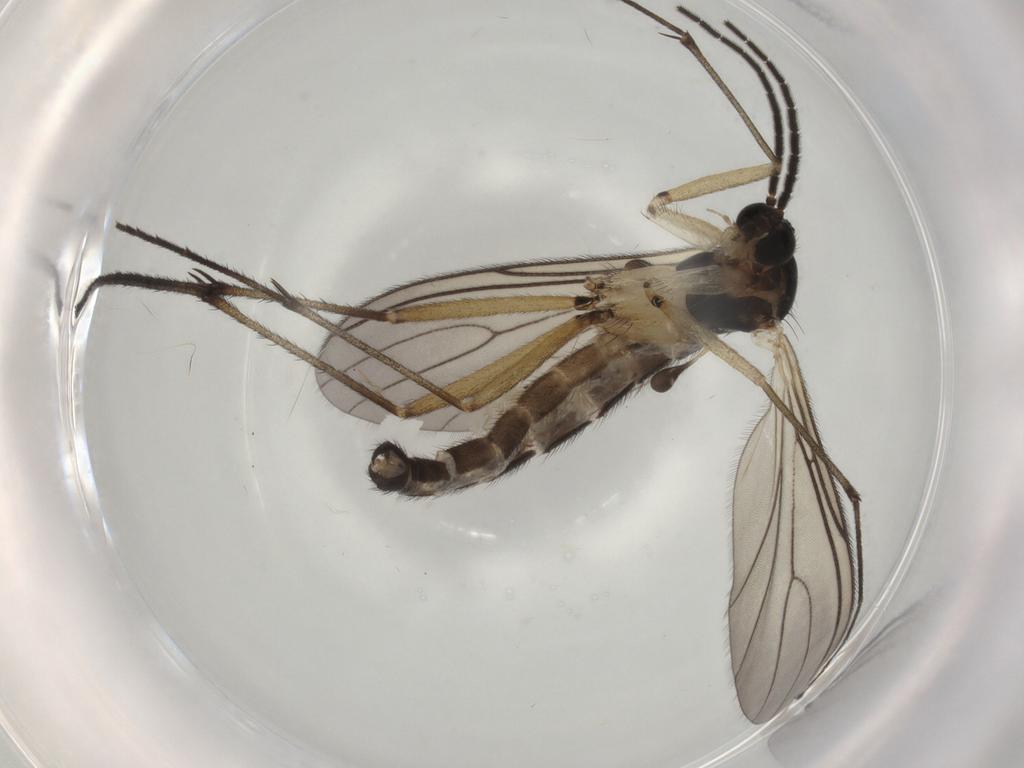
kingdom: Animalia
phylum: Arthropoda
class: Insecta
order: Diptera
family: Sciaridae
